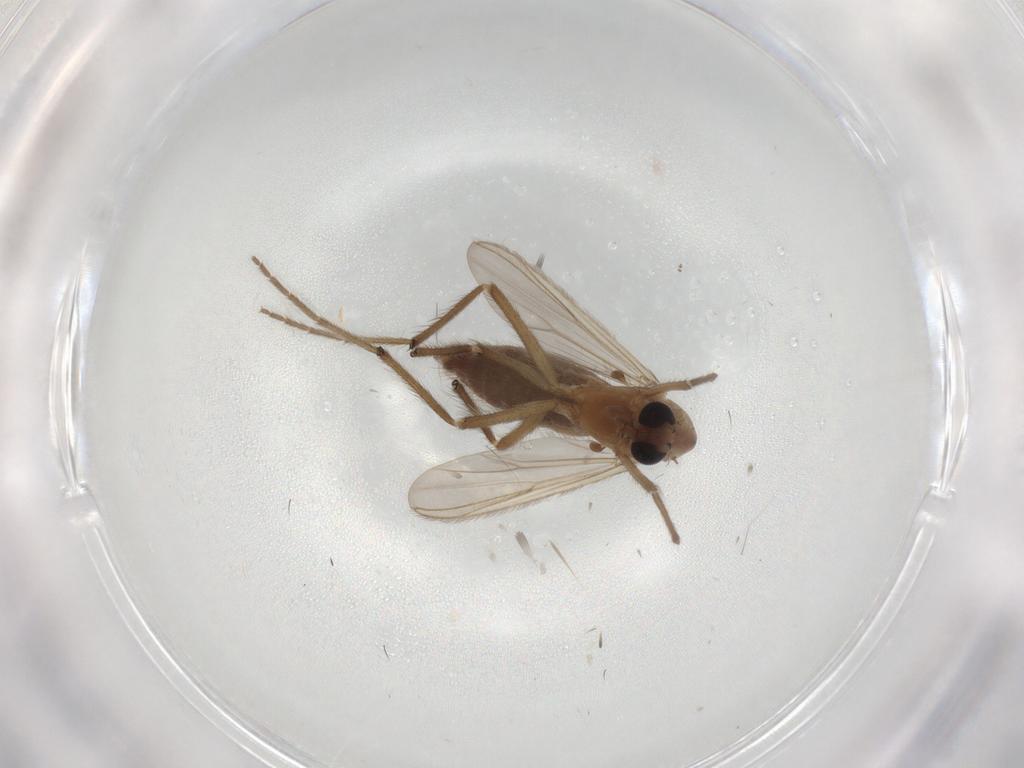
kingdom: Animalia
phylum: Arthropoda
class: Insecta
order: Diptera
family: Chironomidae
